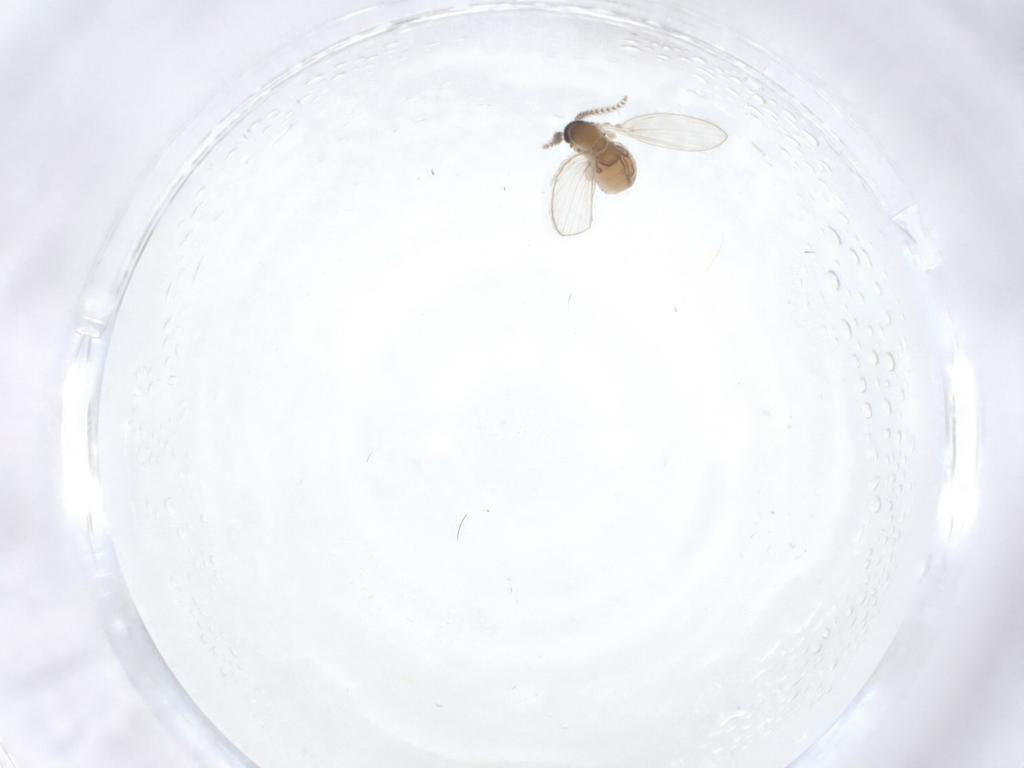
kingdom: Animalia
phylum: Arthropoda
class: Insecta
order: Diptera
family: Psychodidae
